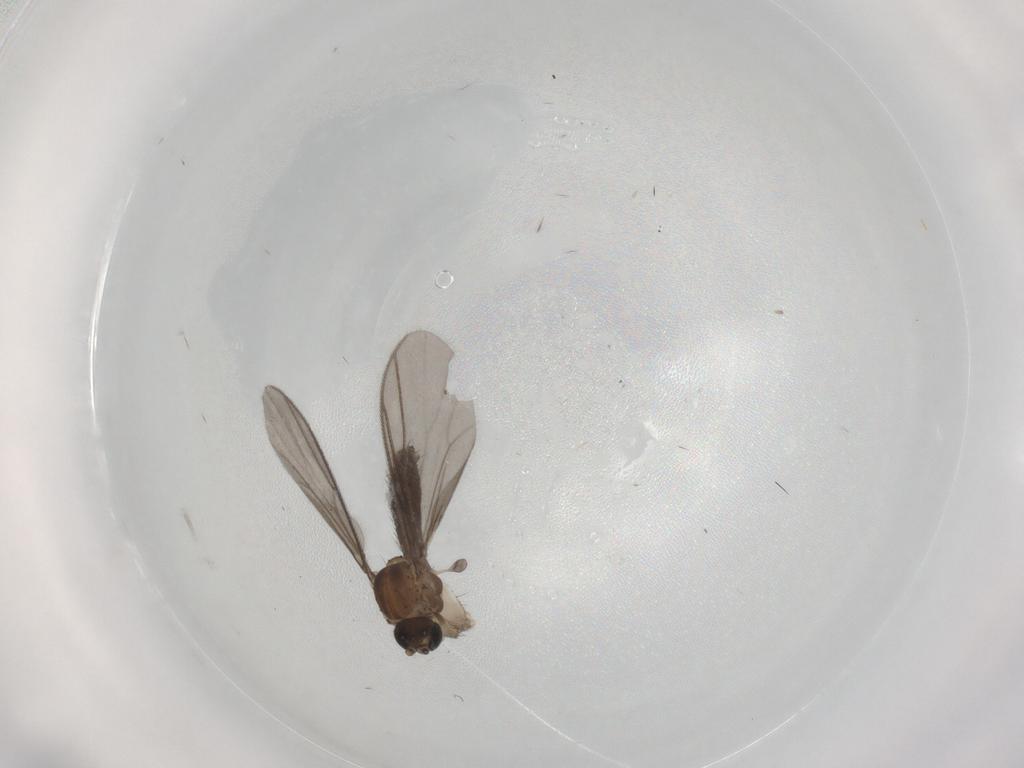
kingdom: Animalia
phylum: Arthropoda
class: Insecta
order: Diptera
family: Mycetophilidae
